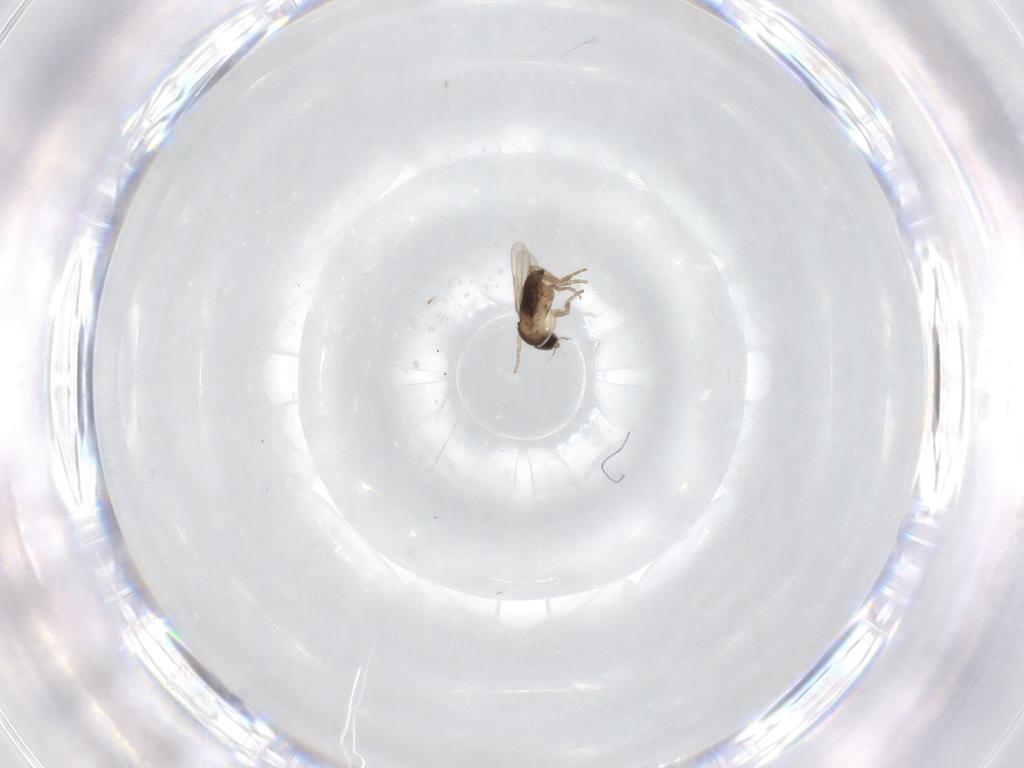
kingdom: Animalia
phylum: Arthropoda
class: Insecta
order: Diptera
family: Phoridae
